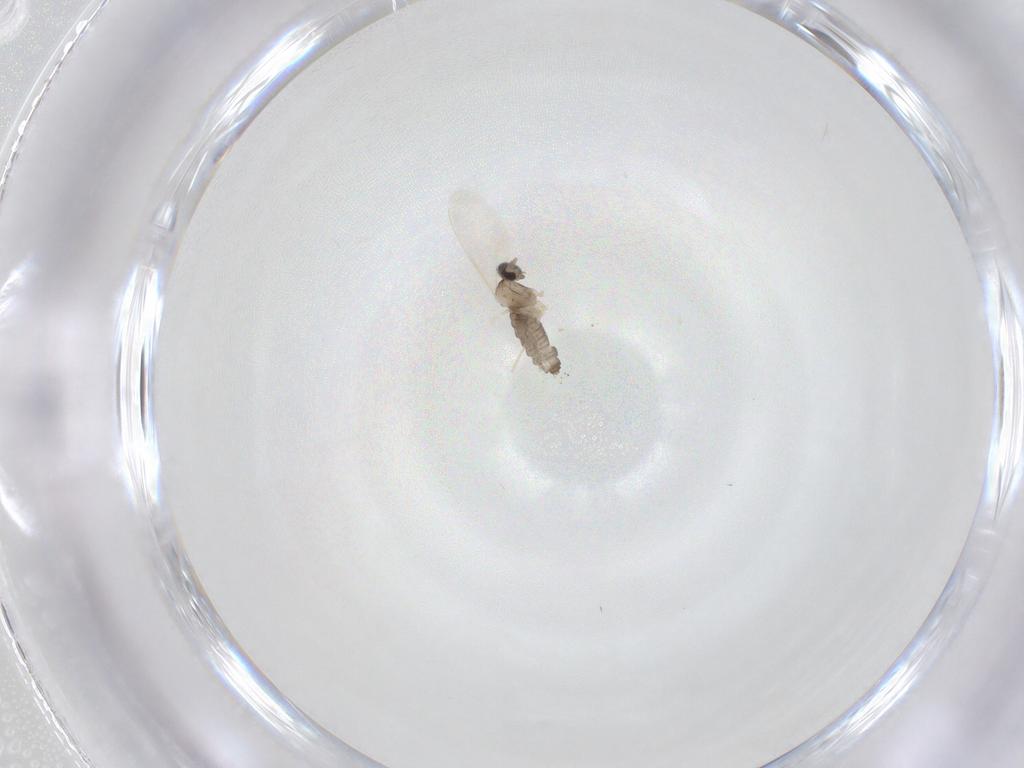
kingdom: Animalia
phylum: Arthropoda
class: Insecta
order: Diptera
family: Cecidomyiidae
